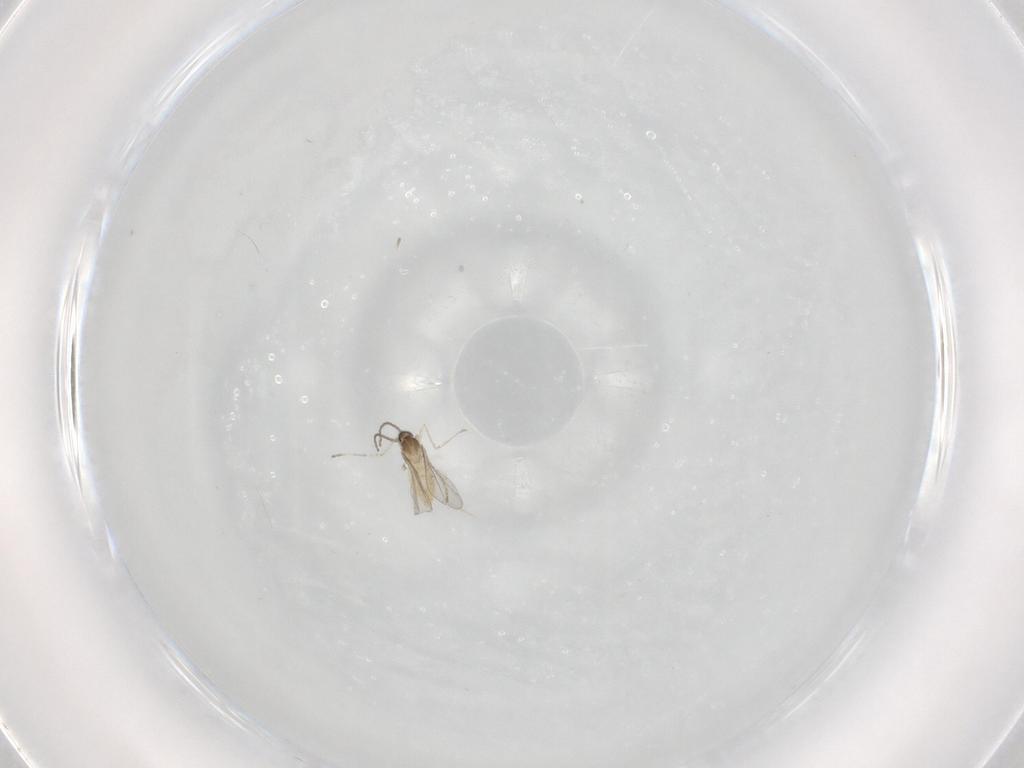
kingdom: Animalia
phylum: Arthropoda
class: Insecta
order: Diptera
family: Cecidomyiidae
